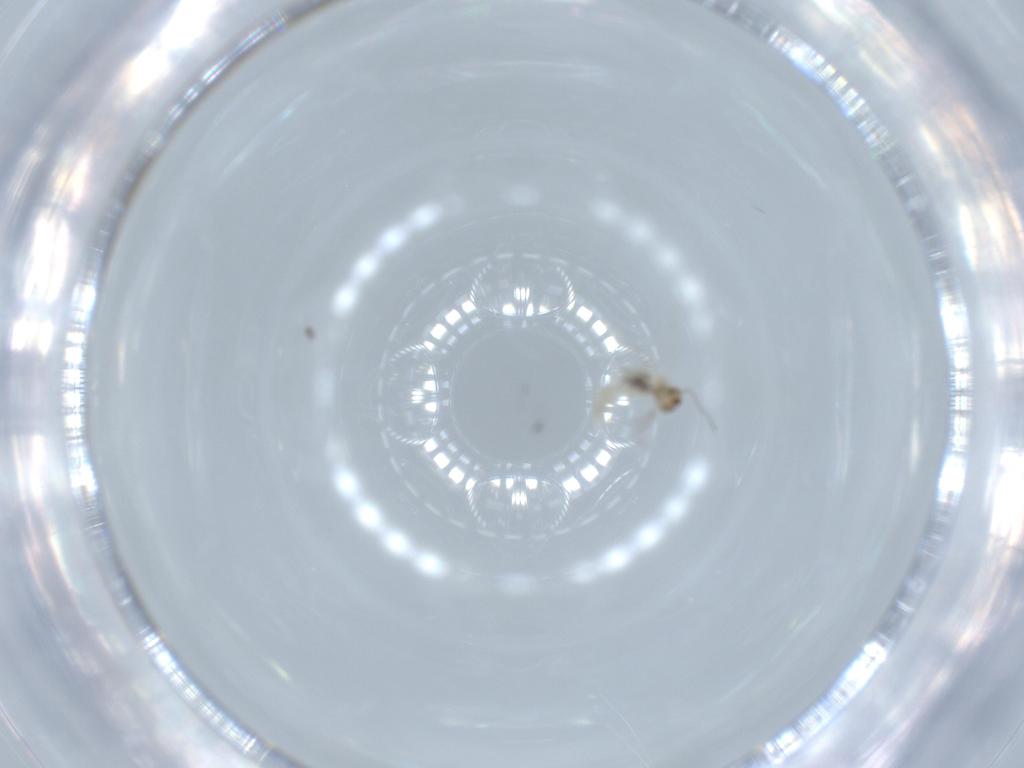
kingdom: Animalia
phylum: Arthropoda
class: Insecta
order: Diptera
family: Cecidomyiidae
